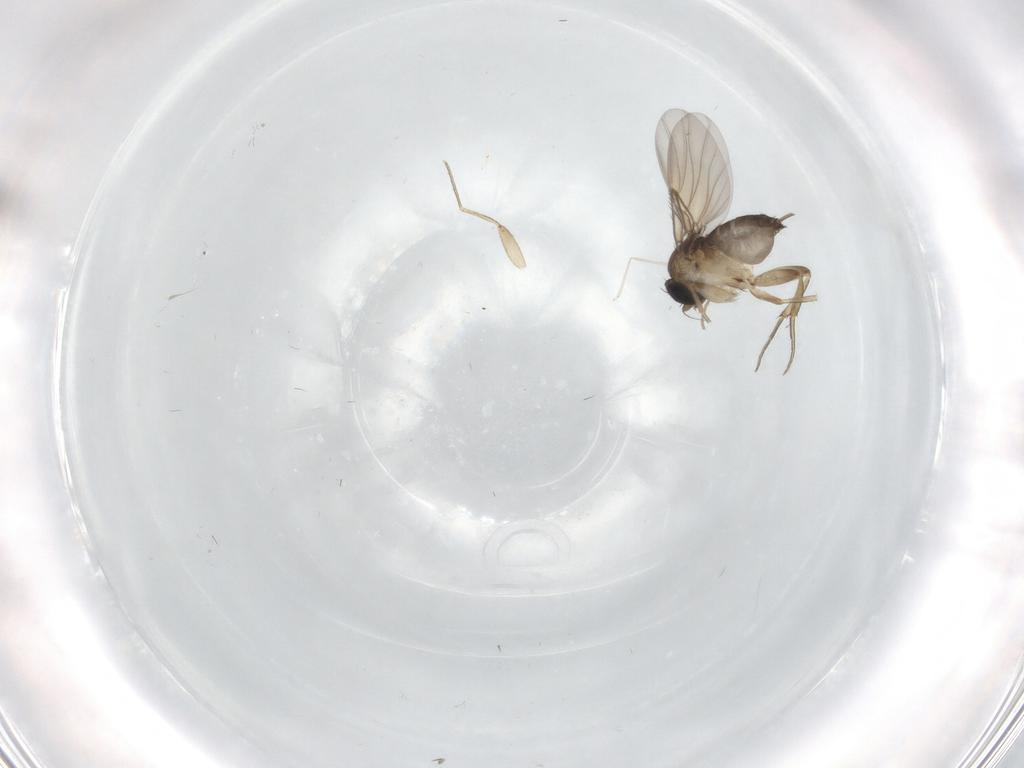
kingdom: Animalia
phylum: Arthropoda
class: Insecta
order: Diptera
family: Phoridae
